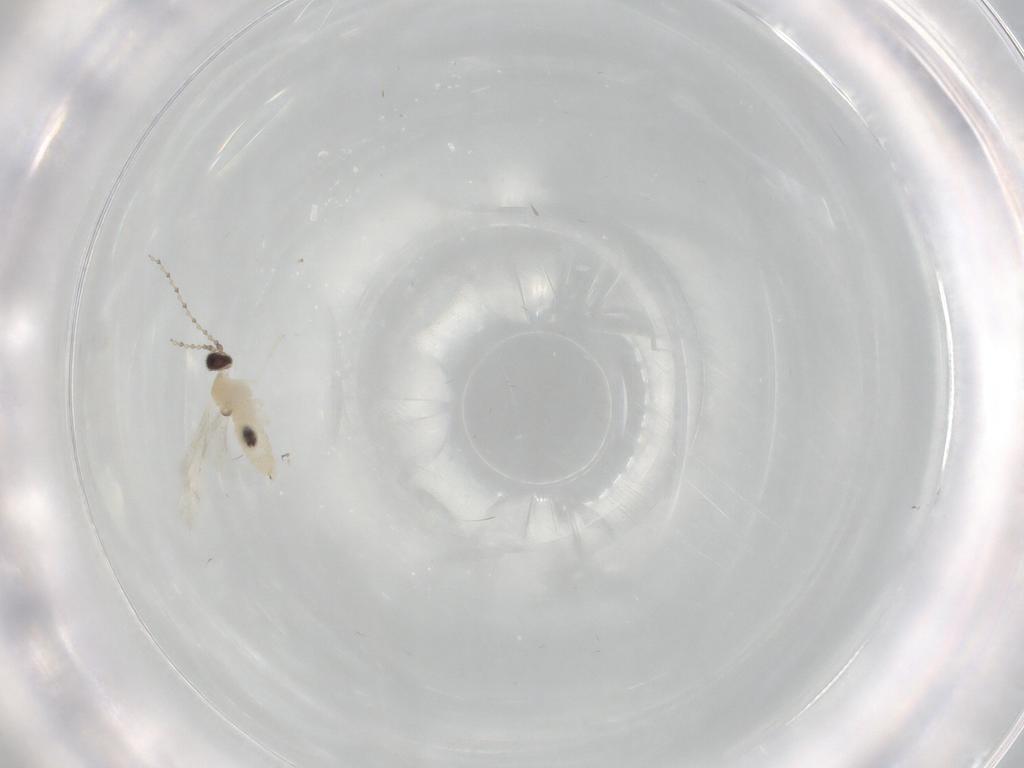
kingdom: Animalia
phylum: Arthropoda
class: Insecta
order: Diptera
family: Cecidomyiidae
